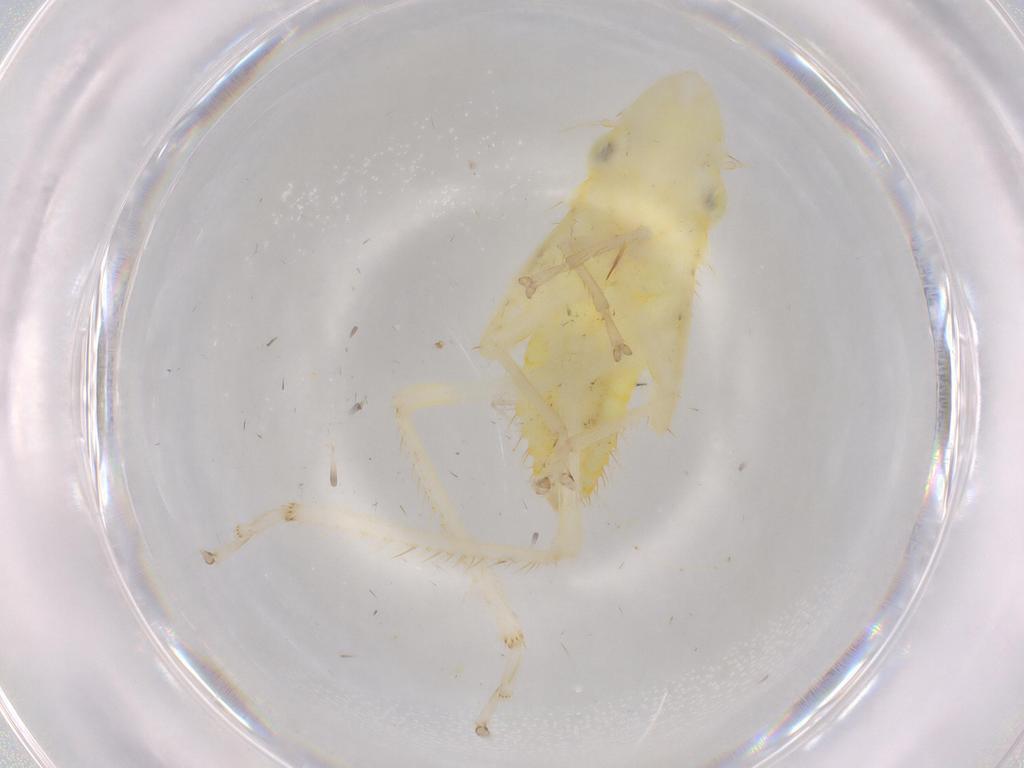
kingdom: Animalia
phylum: Arthropoda
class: Insecta
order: Hemiptera
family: Cicadellidae
